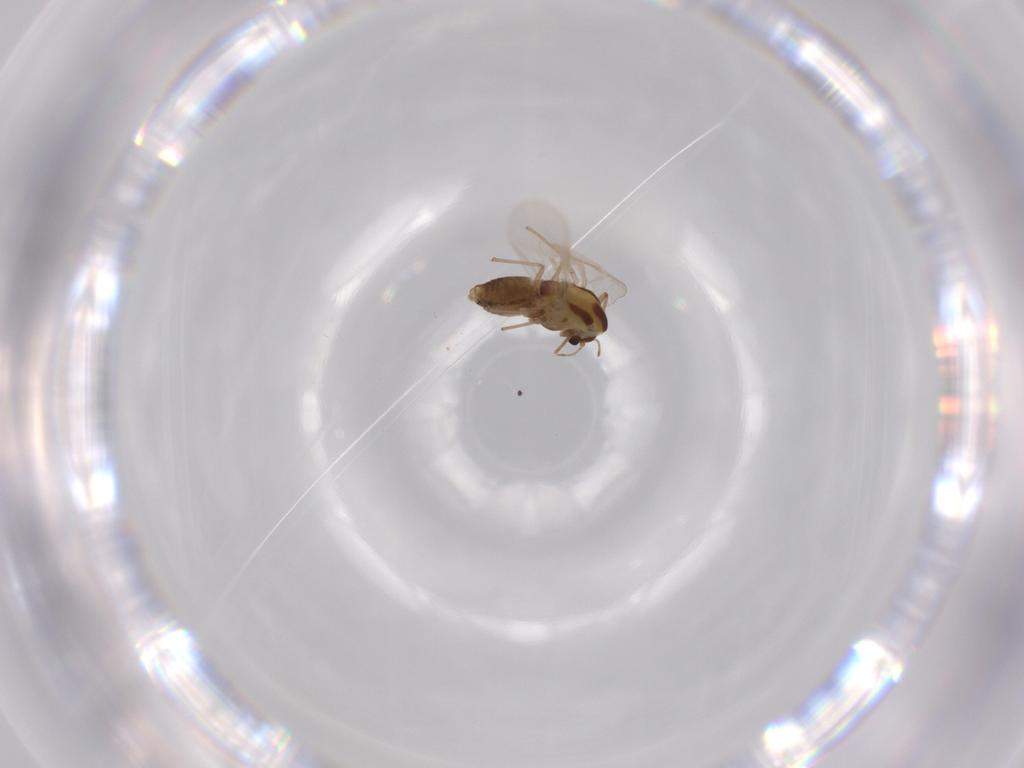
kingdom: Animalia
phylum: Arthropoda
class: Insecta
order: Diptera
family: Chironomidae
